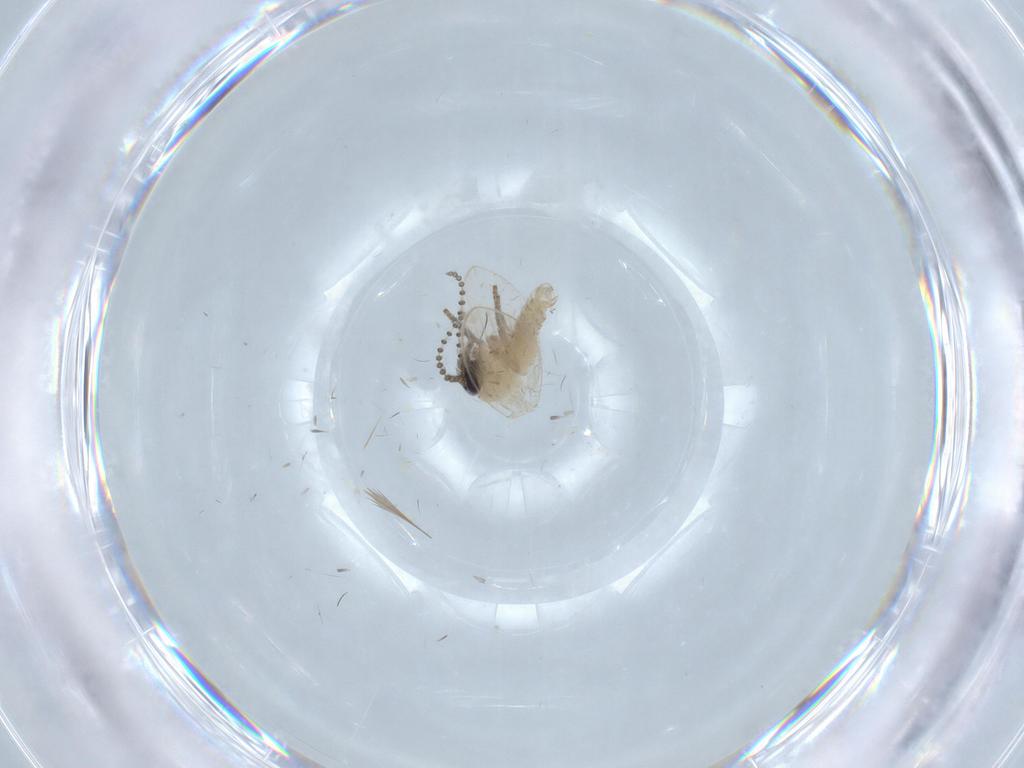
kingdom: Animalia
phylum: Arthropoda
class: Insecta
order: Diptera
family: Psychodidae
